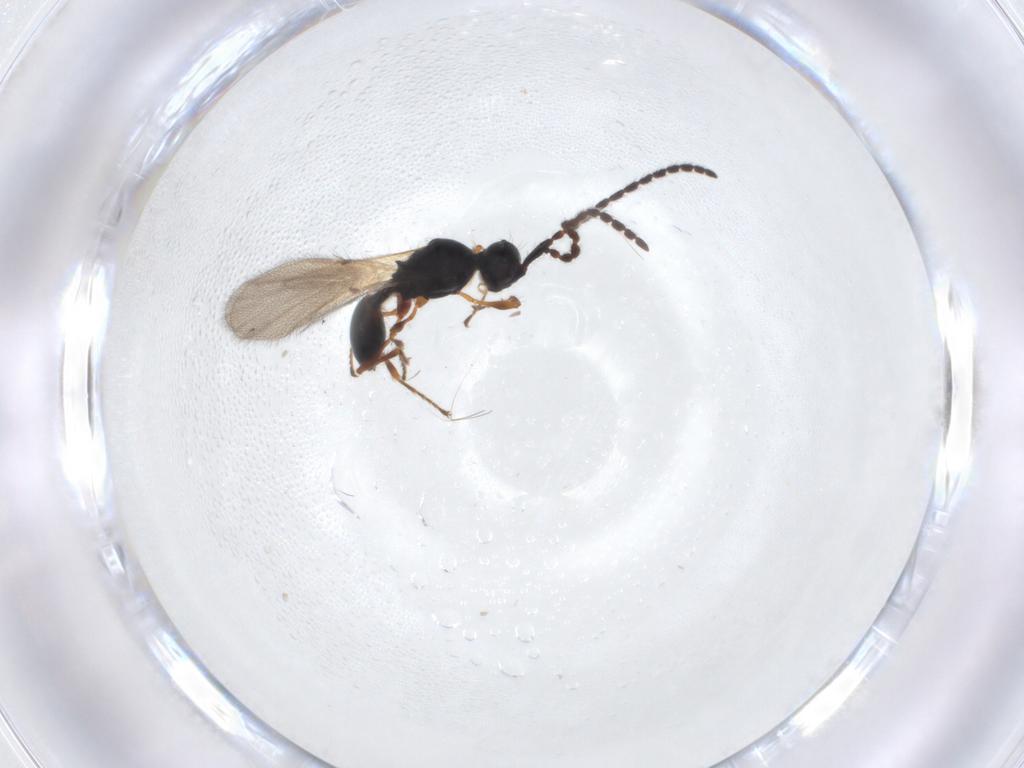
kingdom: Animalia
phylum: Arthropoda
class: Insecta
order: Hymenoptera
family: Diapriidae
